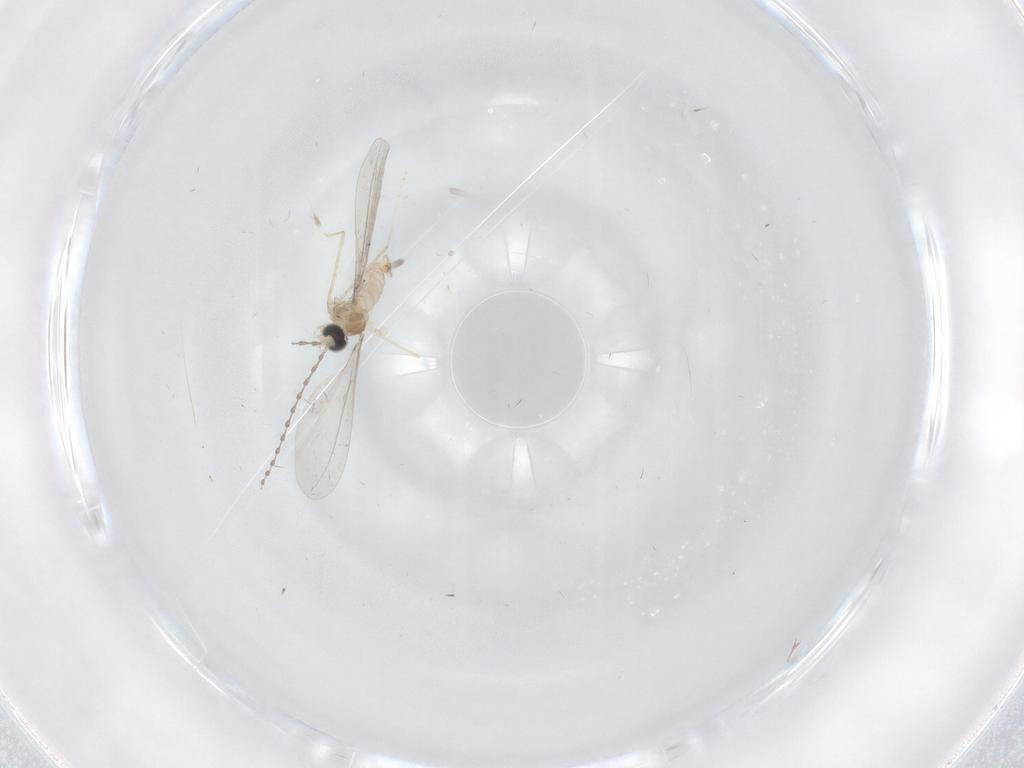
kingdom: Animalia
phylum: Arthropoda
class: Insecta
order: Diptera
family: Cecidomyiidae
